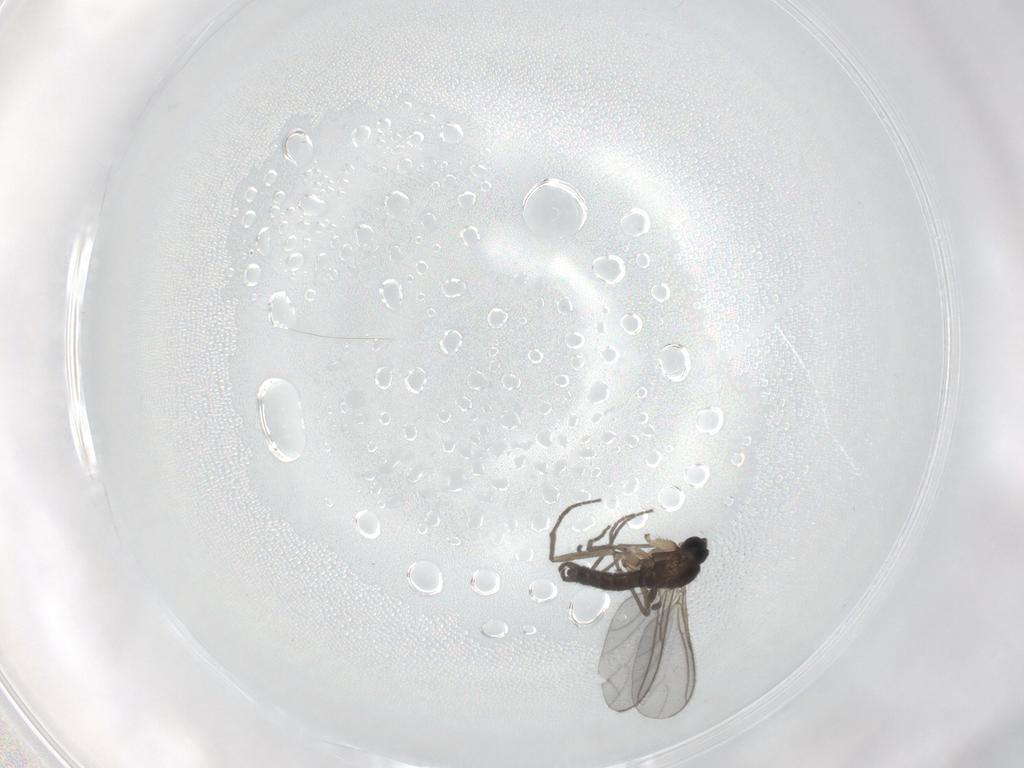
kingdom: Animalia
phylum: Arthropoda
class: Insecta
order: Diptera
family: Sciaridae
